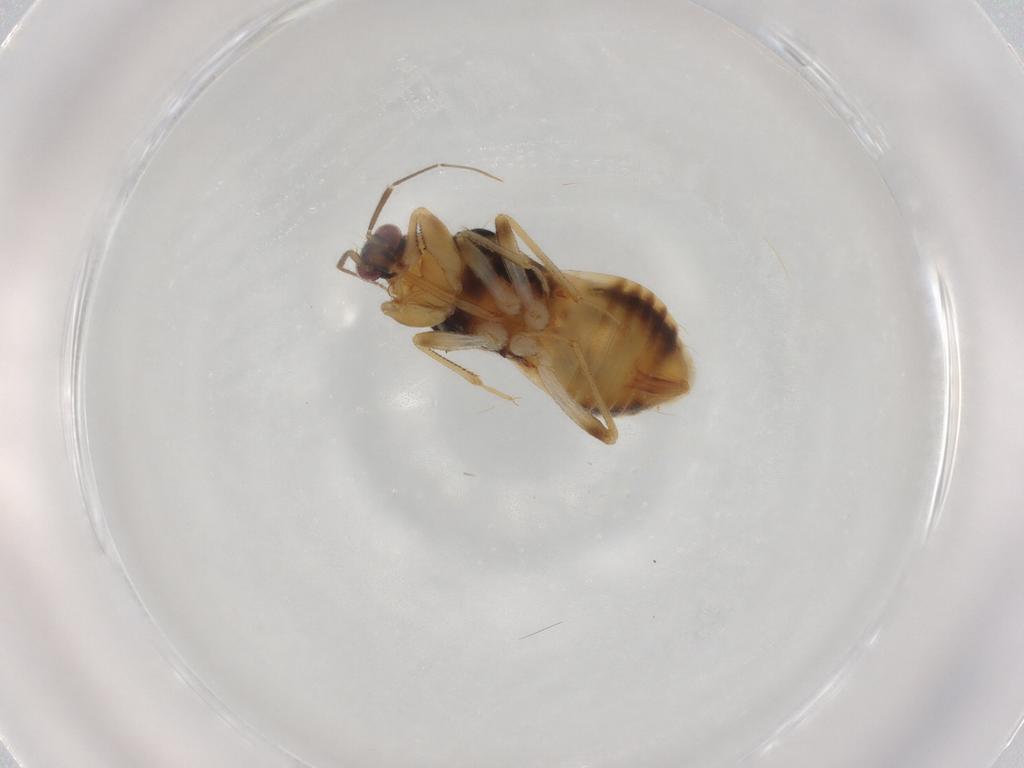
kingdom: Animalia
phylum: Arthropoda
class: Insecta
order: Hemiptera
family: Nabidae
